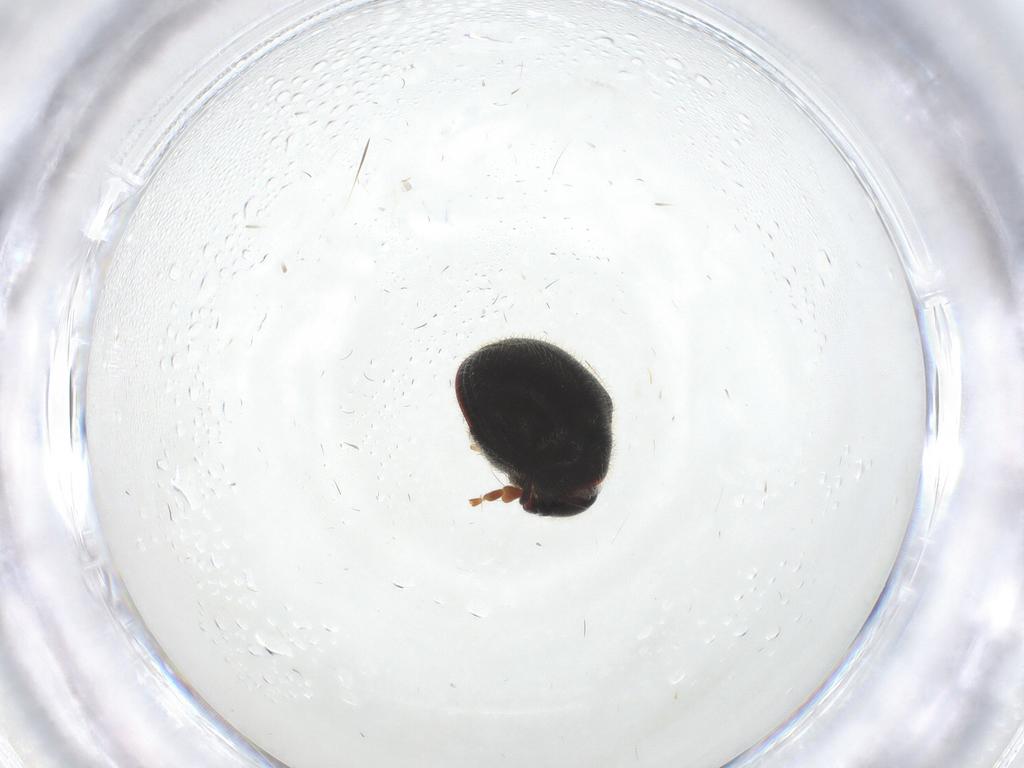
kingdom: Animalia
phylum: Arthropoda
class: Insecta
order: Coleoptera
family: Ptinidae
